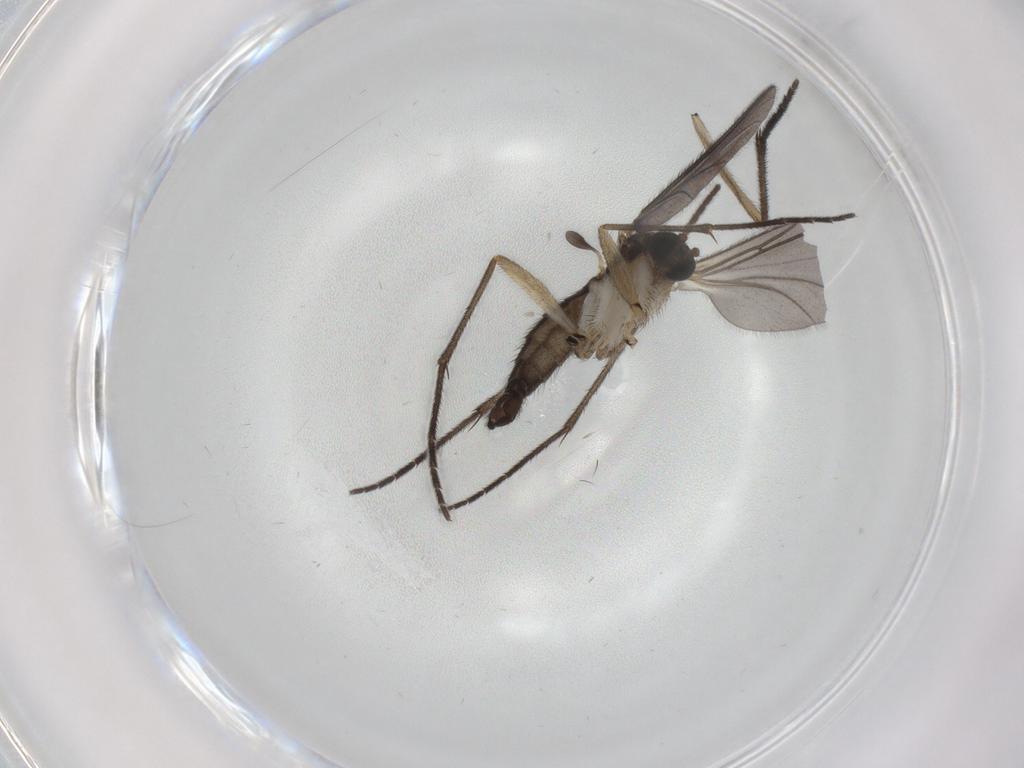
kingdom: Animalia
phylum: Arthropoda
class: Insecta
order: Diptera
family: Sciaridae
